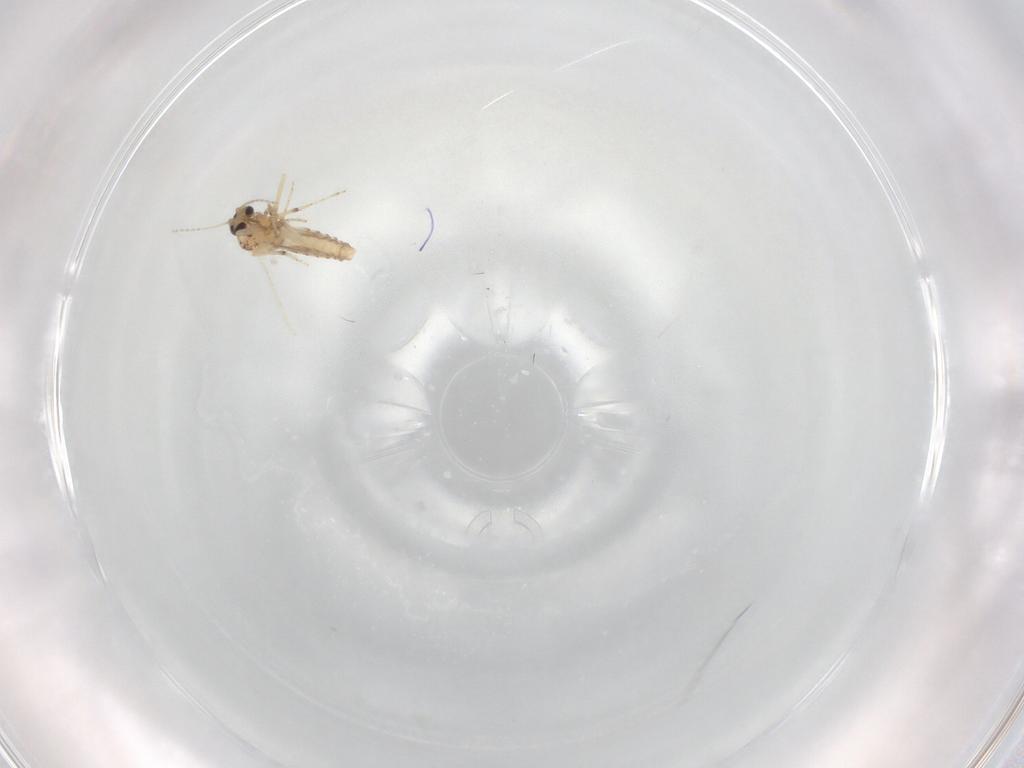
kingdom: Animalia
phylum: Arthropoda
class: Insecta
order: Diptera
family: Ceratopogonidae
